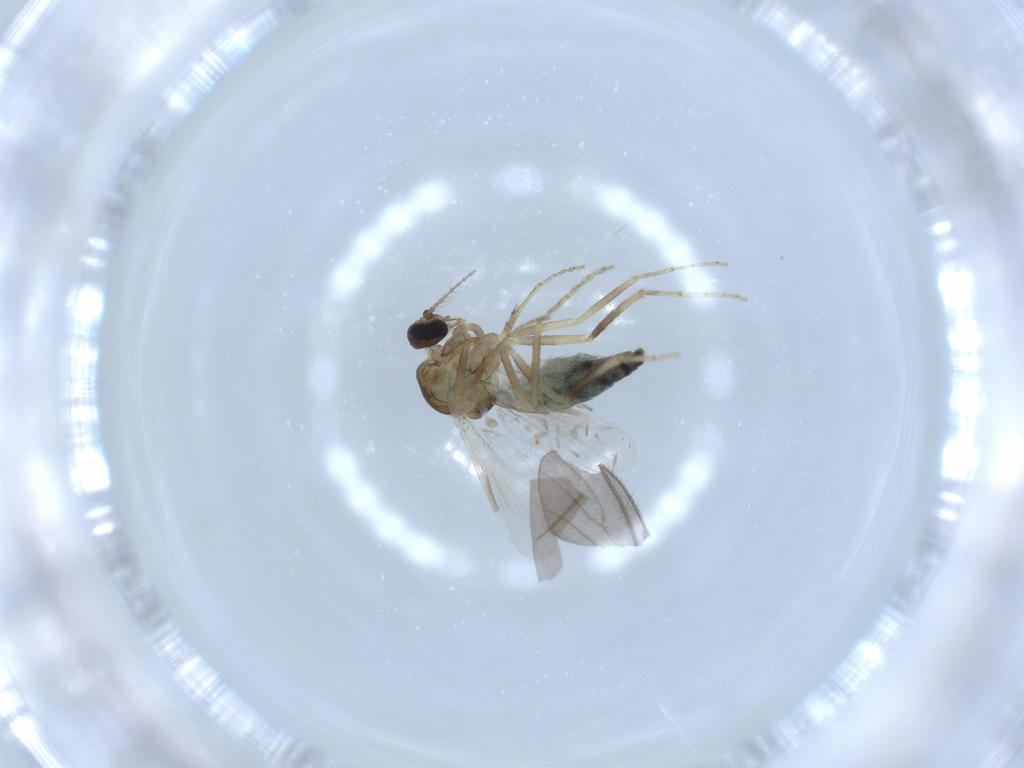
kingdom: Animalia
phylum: Arthropoda
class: Insecta
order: Diptera
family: Ceratopogonidae
